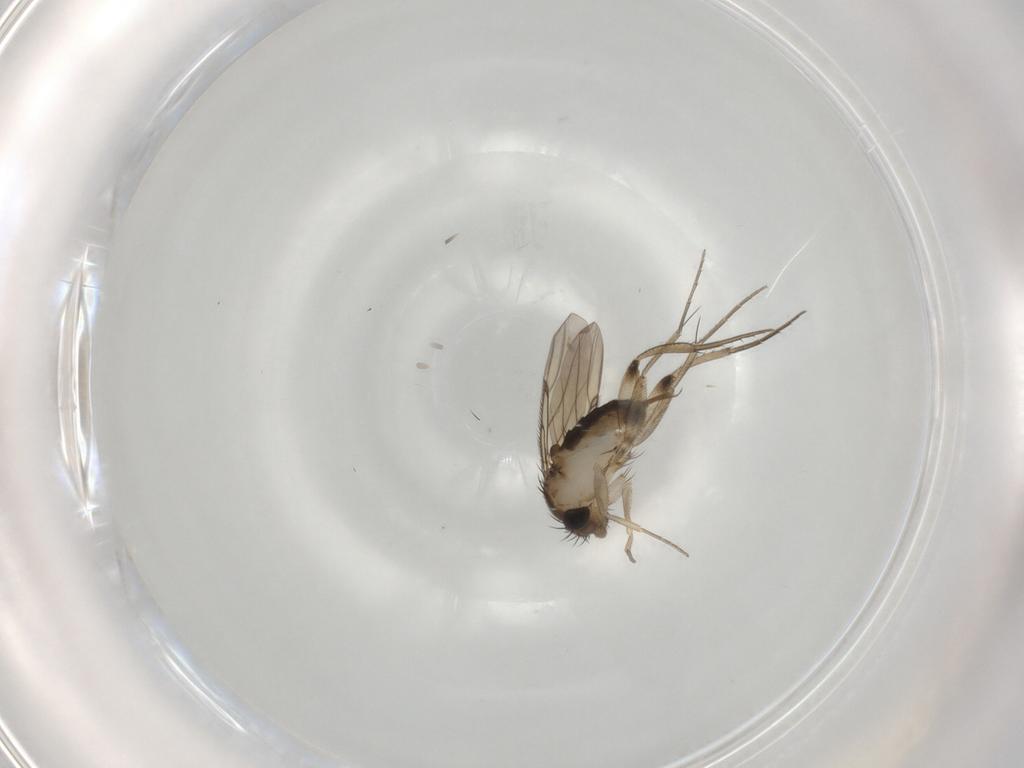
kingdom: Animalia
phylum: Arthropoda
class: Insecta
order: Diptera
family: Phoridae
